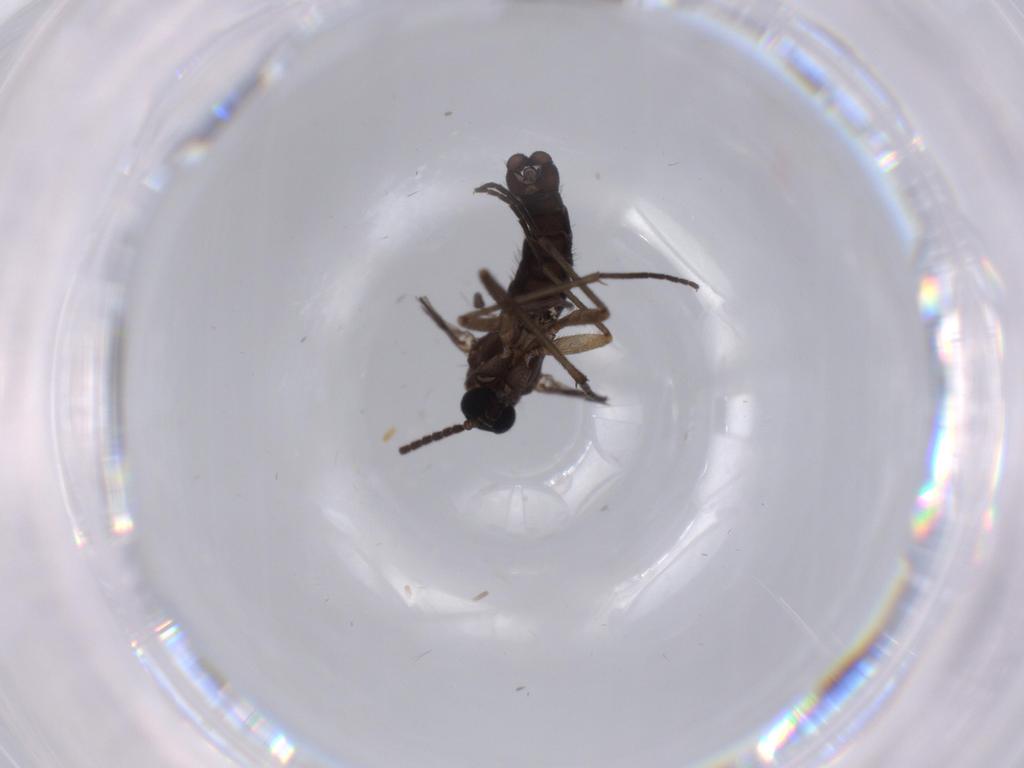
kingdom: Animalia
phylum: Arthropoda
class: Insecta
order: Diptera
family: Sciaridae
